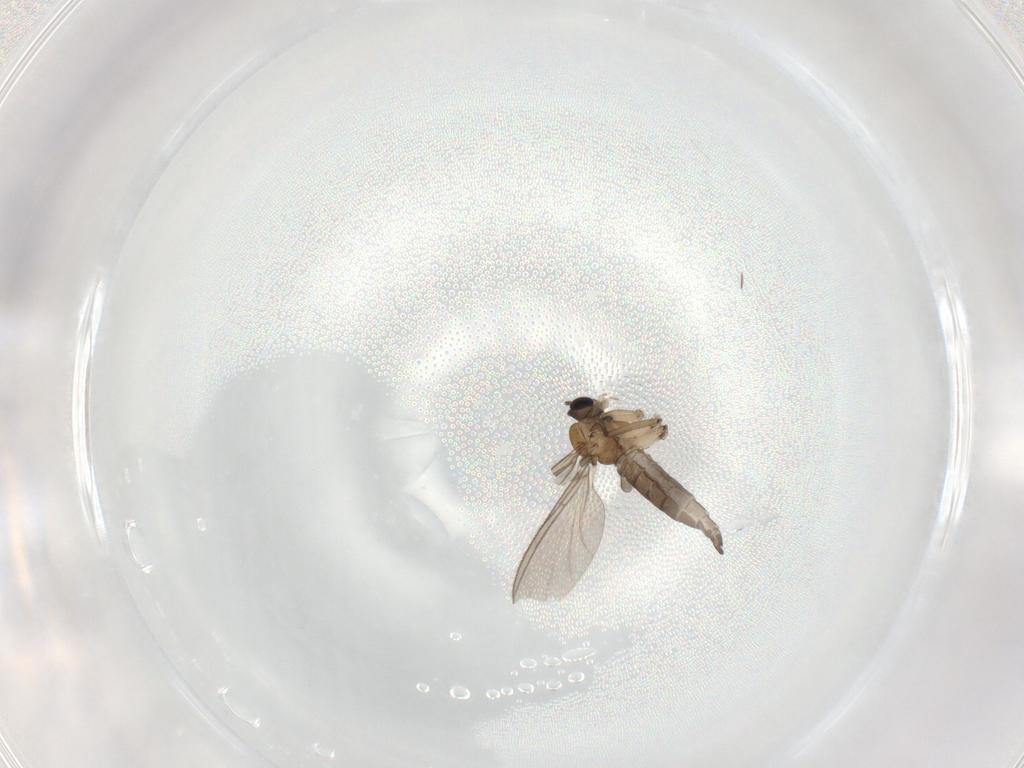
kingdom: Animalia
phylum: Arthropoda
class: Insecta
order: Diptera
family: Sciaridae
